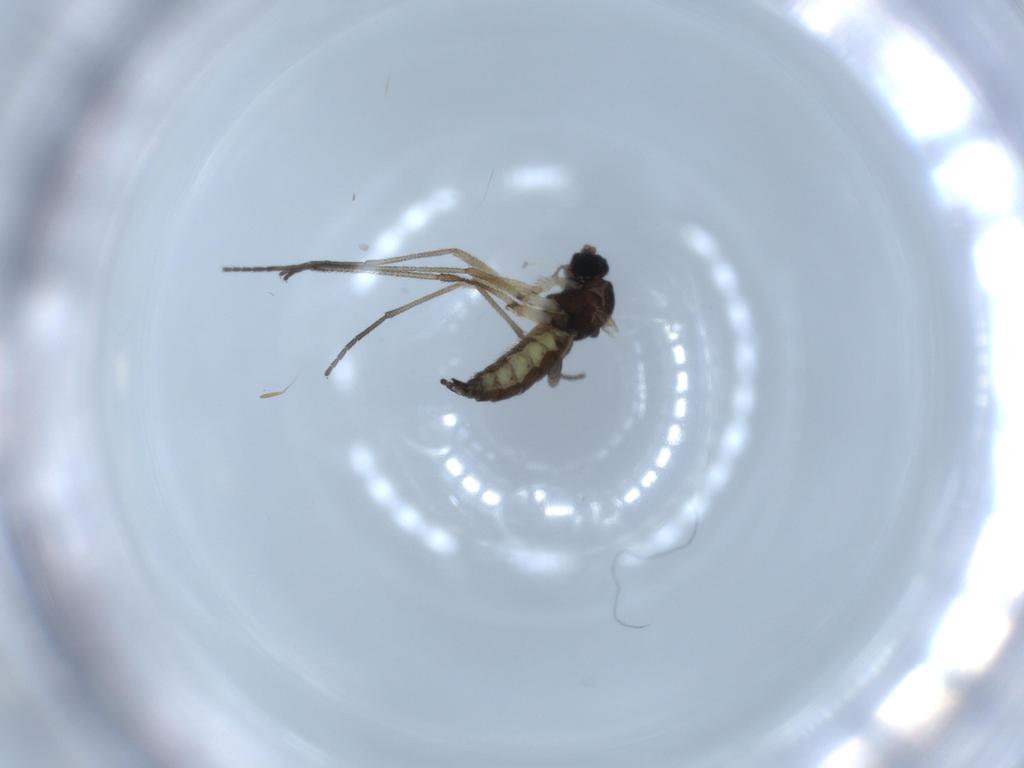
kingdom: Animalia
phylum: Arthropoda
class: Insecta
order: Diptera
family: Sciaridae
